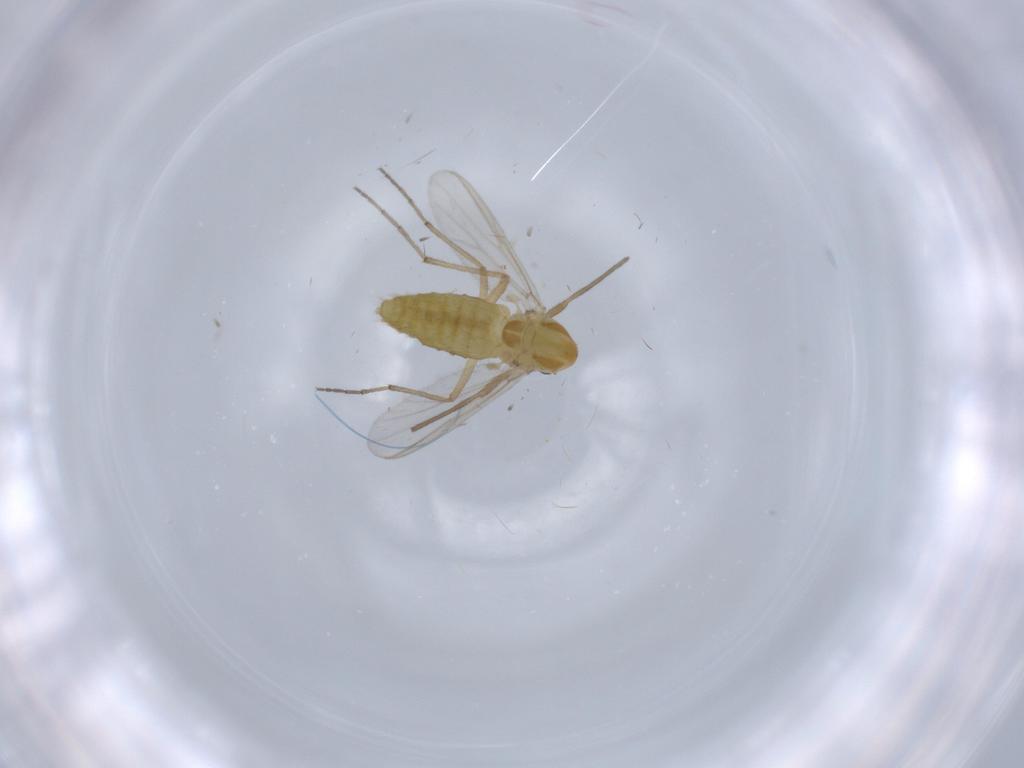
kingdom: Animalia
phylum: Arthropoda
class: Insecta
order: Diptera
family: Chironomidae
